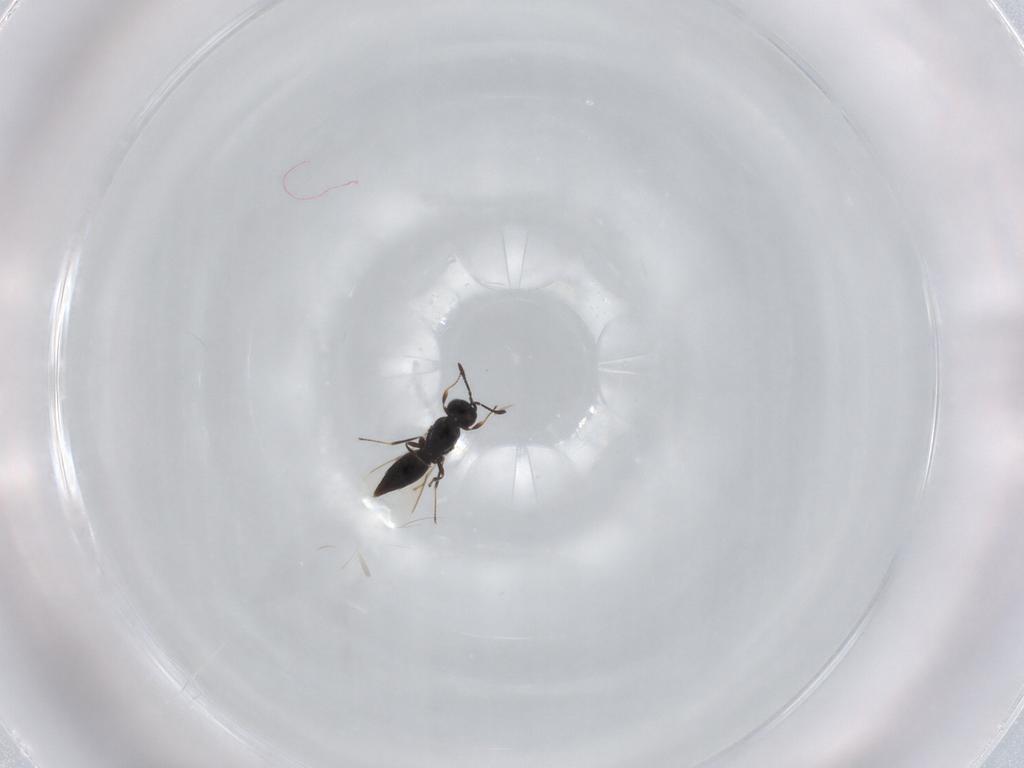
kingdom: Animalia
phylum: Arthropoda
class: Insecta
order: Hymenoptera
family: Scelionidae
